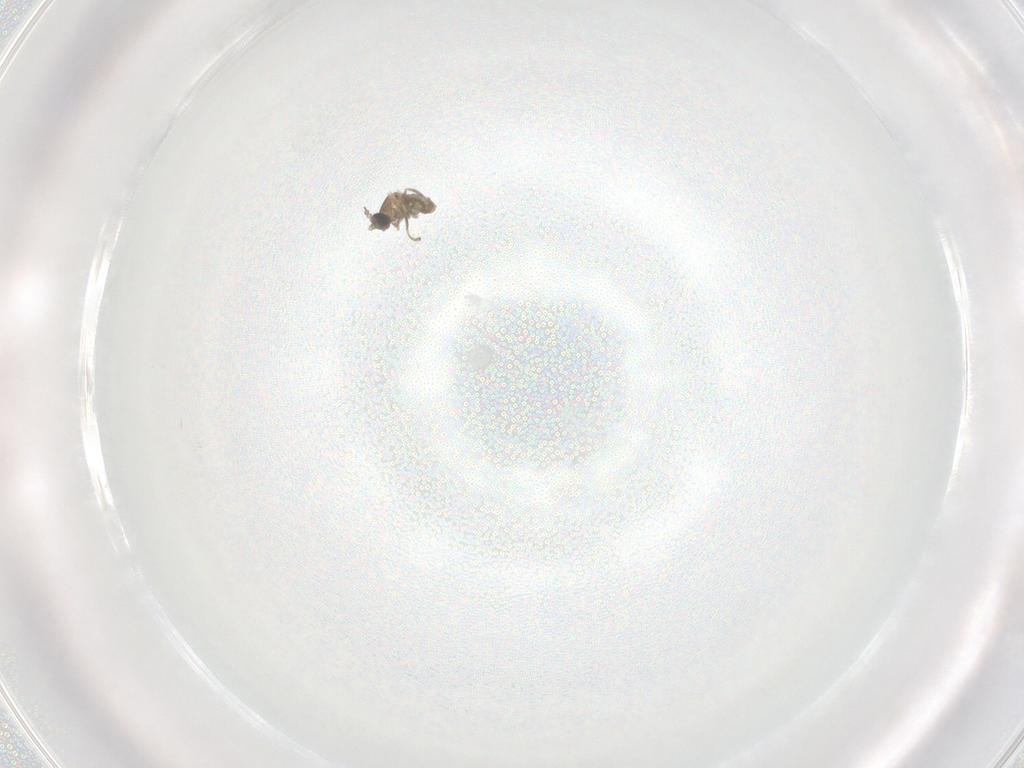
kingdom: Animalia
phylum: Arthropoda
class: Insecta
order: Diptera
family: Cecidomyiidae
